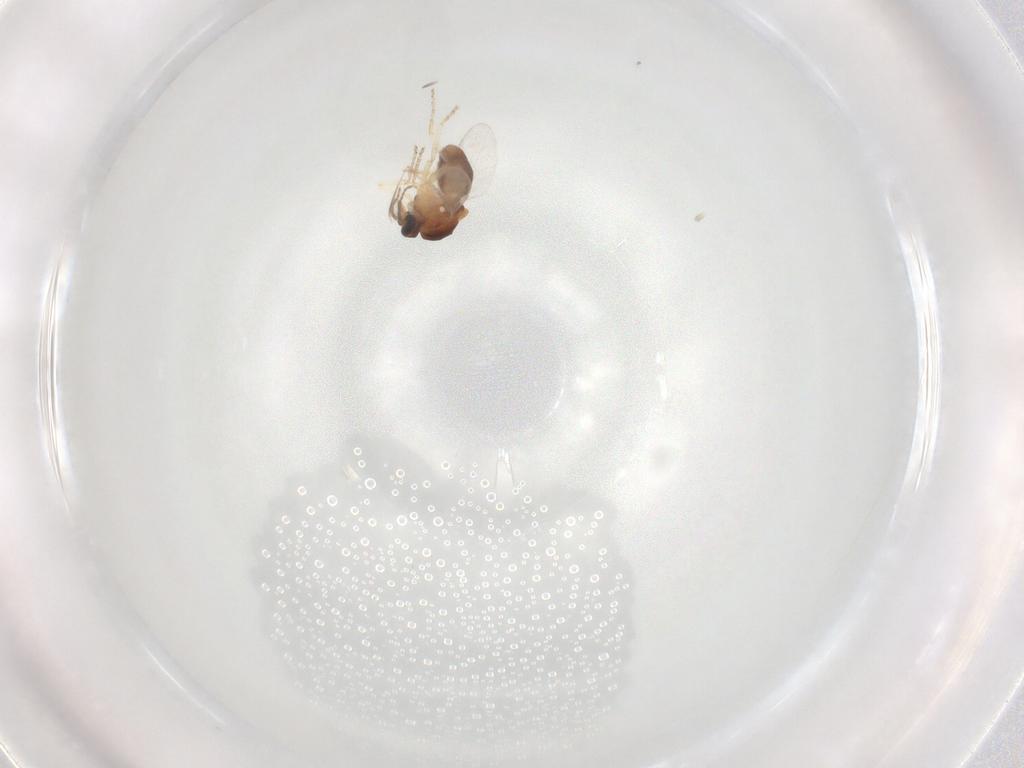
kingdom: Animalia
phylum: Arthropoda
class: Insecta
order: Diptera
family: Ceratopogonidae
